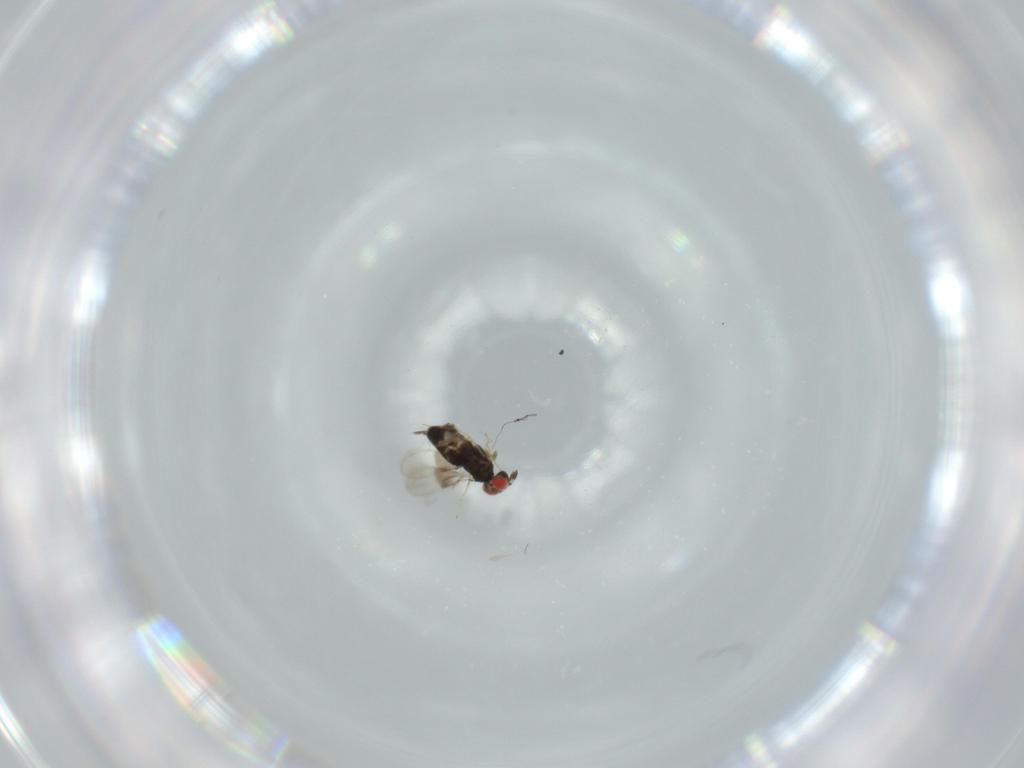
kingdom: Animalia
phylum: Arthropoda
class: Insecta
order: Hymenoptera
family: Azotidae
